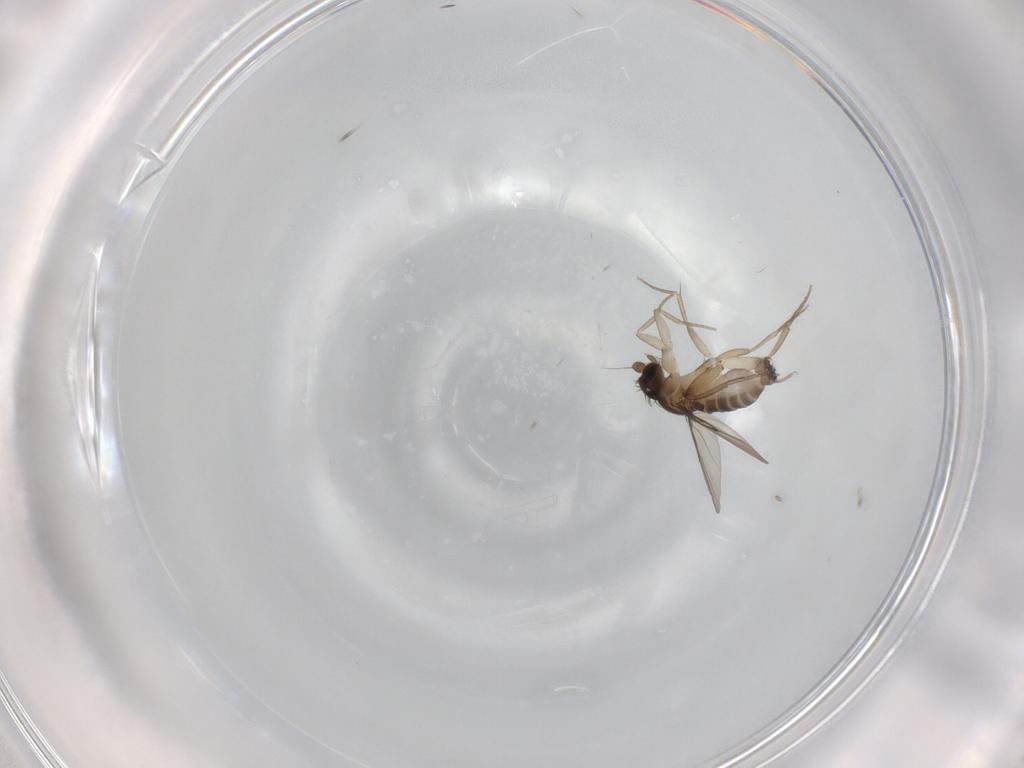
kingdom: Animalia
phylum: Arthropoda
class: Insecta
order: Diptera
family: Phoridae
